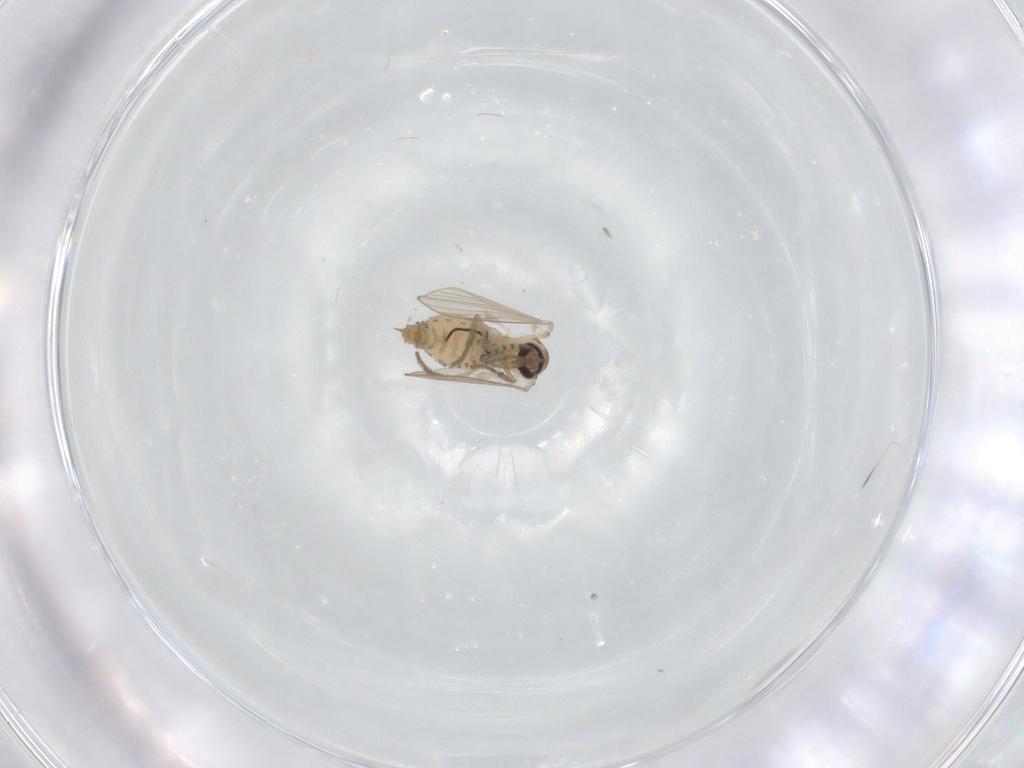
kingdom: Animalia
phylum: Arthropoda
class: Insecta
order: Diptera
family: Psychodidae
